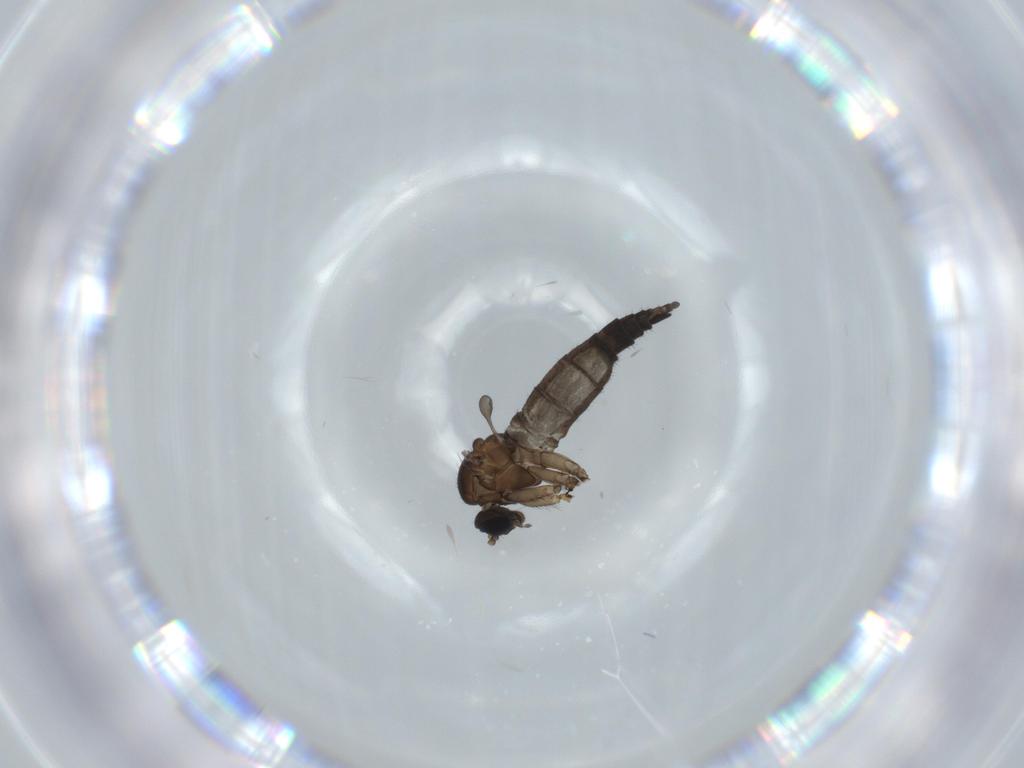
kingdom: Animalia
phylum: Arthropoda
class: Insecta
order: Diptera
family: Sciaridae
